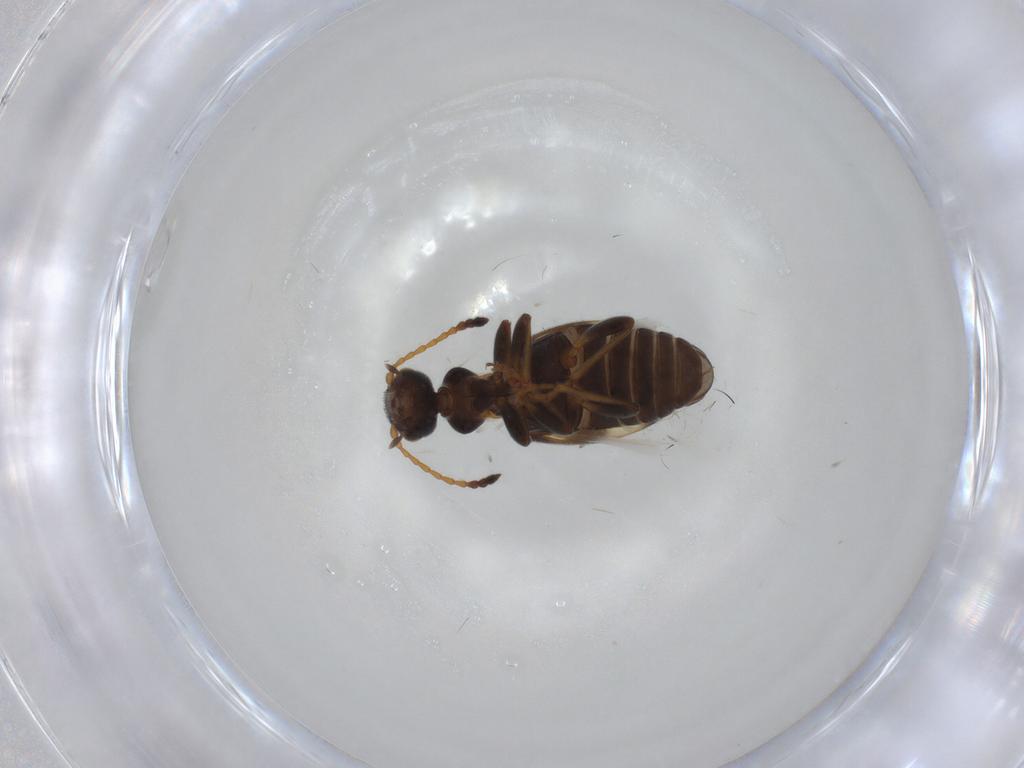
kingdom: Animalia
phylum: Arthropoda
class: Insecta
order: Coleoptera
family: Anthicidae
